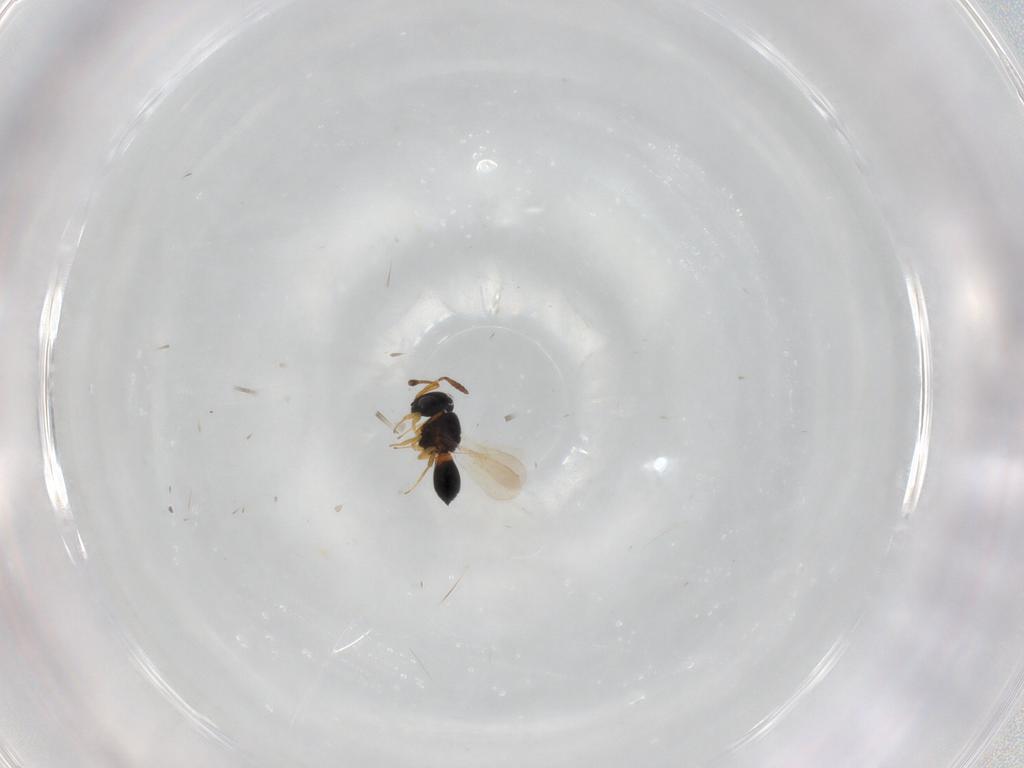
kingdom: Animalia
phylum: Arthropoda
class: Insecta
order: Hymenoptera
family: Scelionidae
